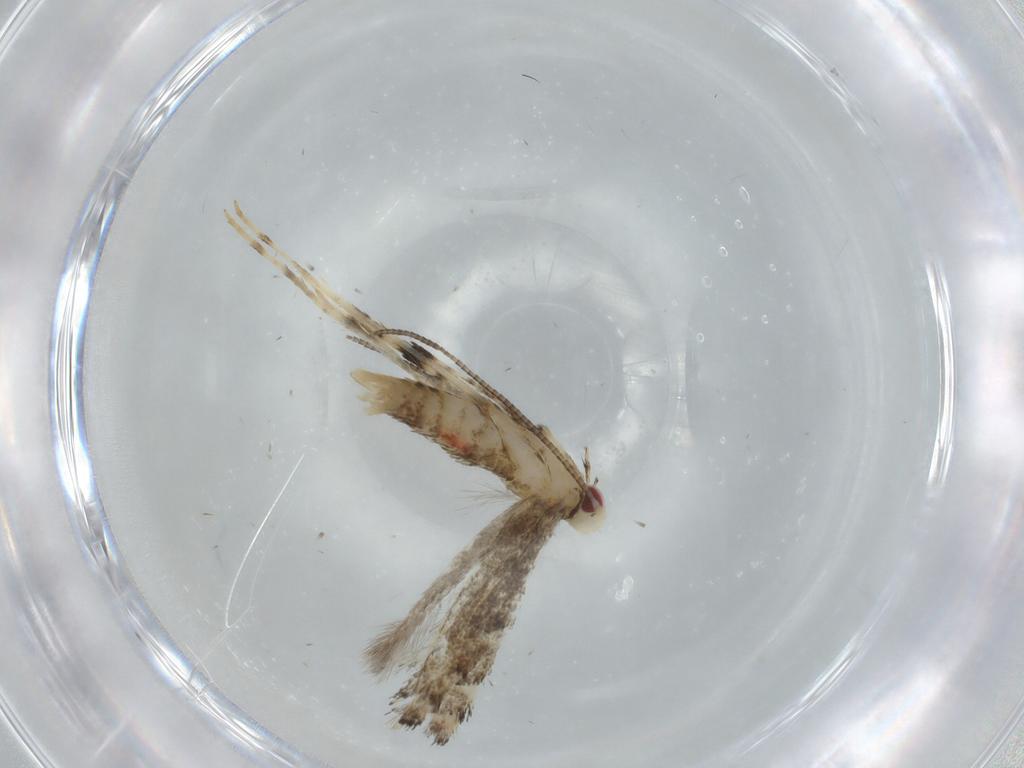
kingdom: Animalia
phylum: Arthropoda
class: Insecta
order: Lepidoptera
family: Gracillariidae
